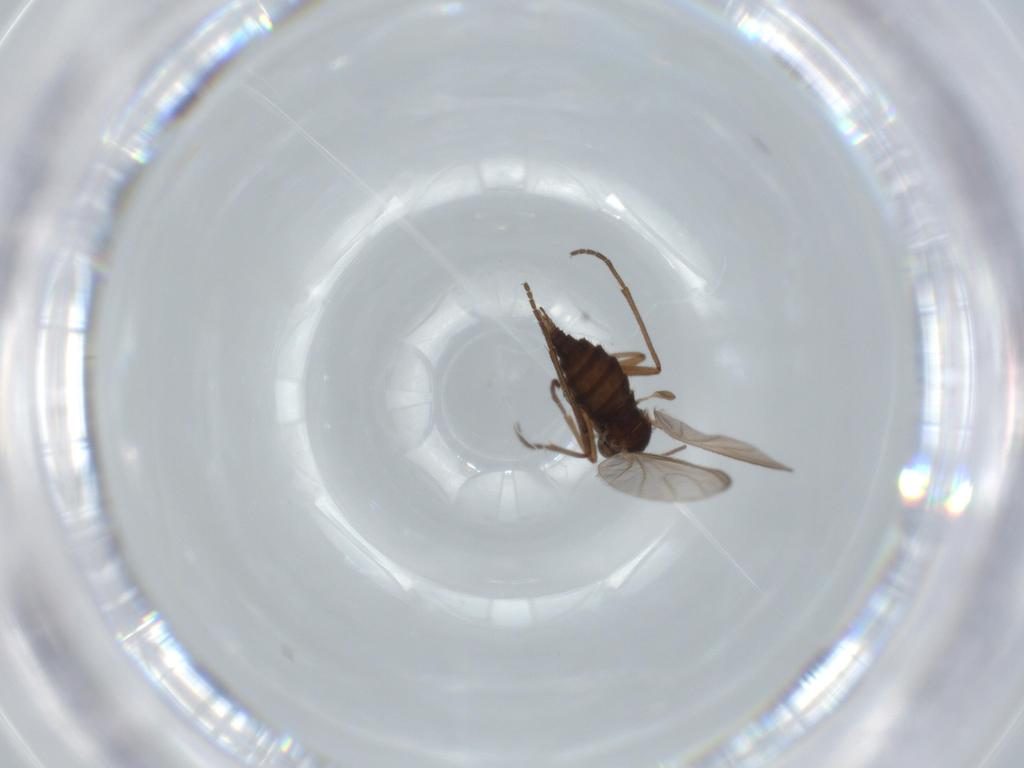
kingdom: Animalia
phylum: Arthropoda
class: Insecta
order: Diptera
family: Sciaridae
